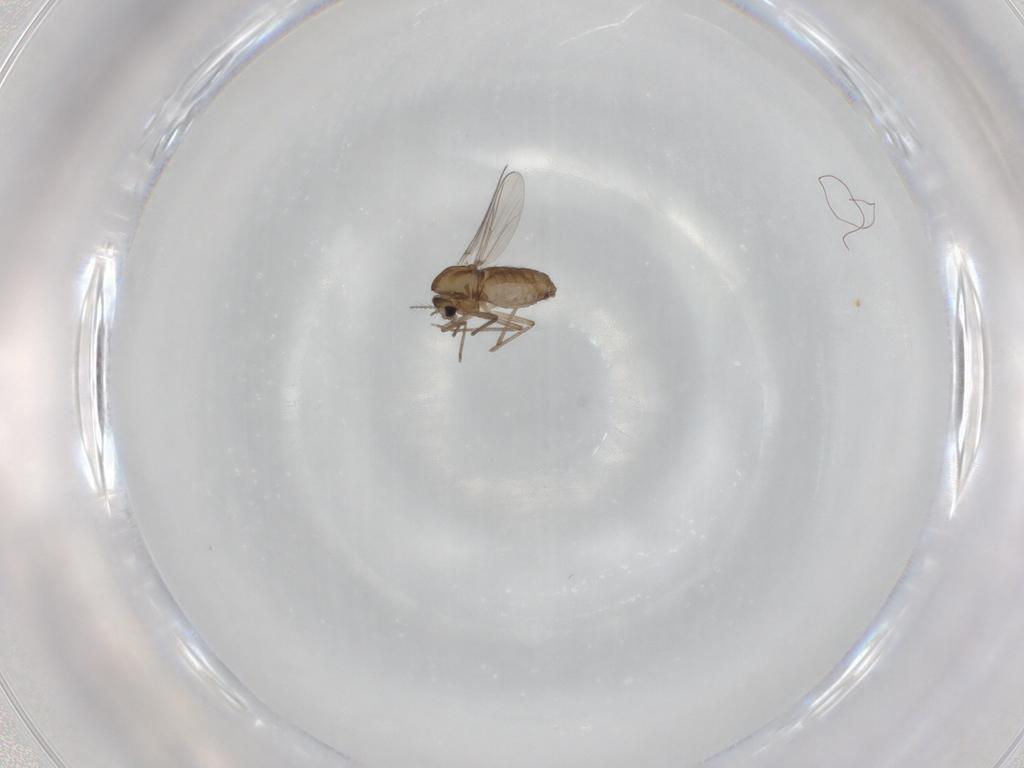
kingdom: Animalia
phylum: Arthropoda
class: Insecta
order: Diptera
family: Chironomidae
